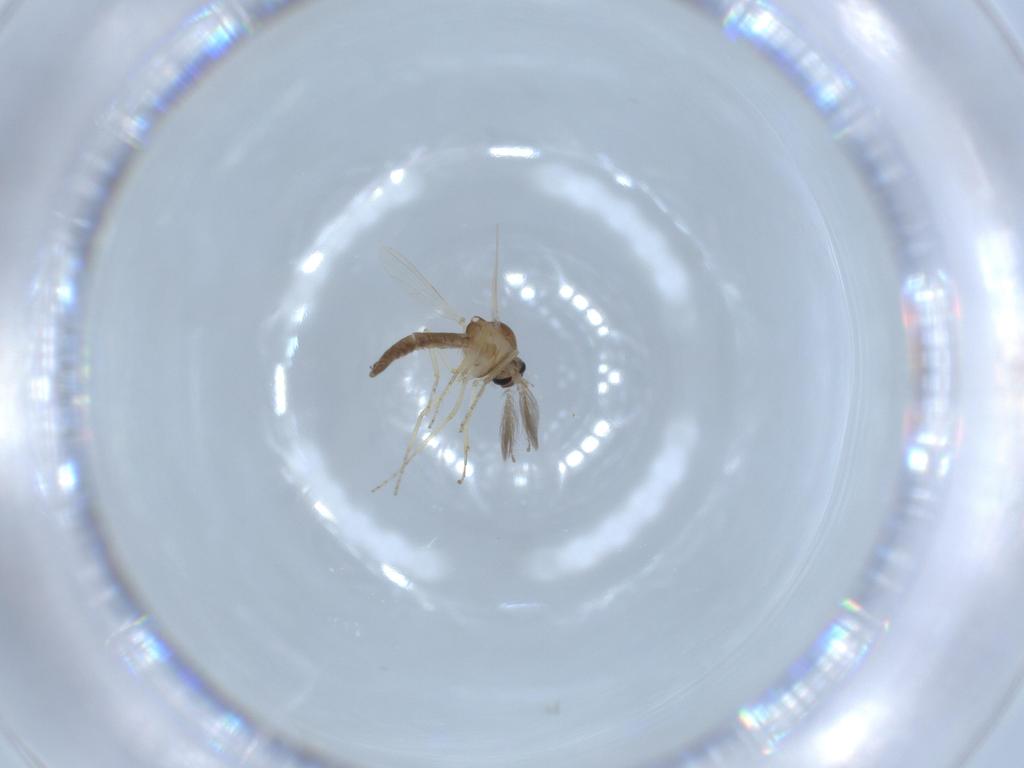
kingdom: Animalia
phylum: Arthropoda
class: Insecta
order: Diptera
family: Ceratopogonidae
